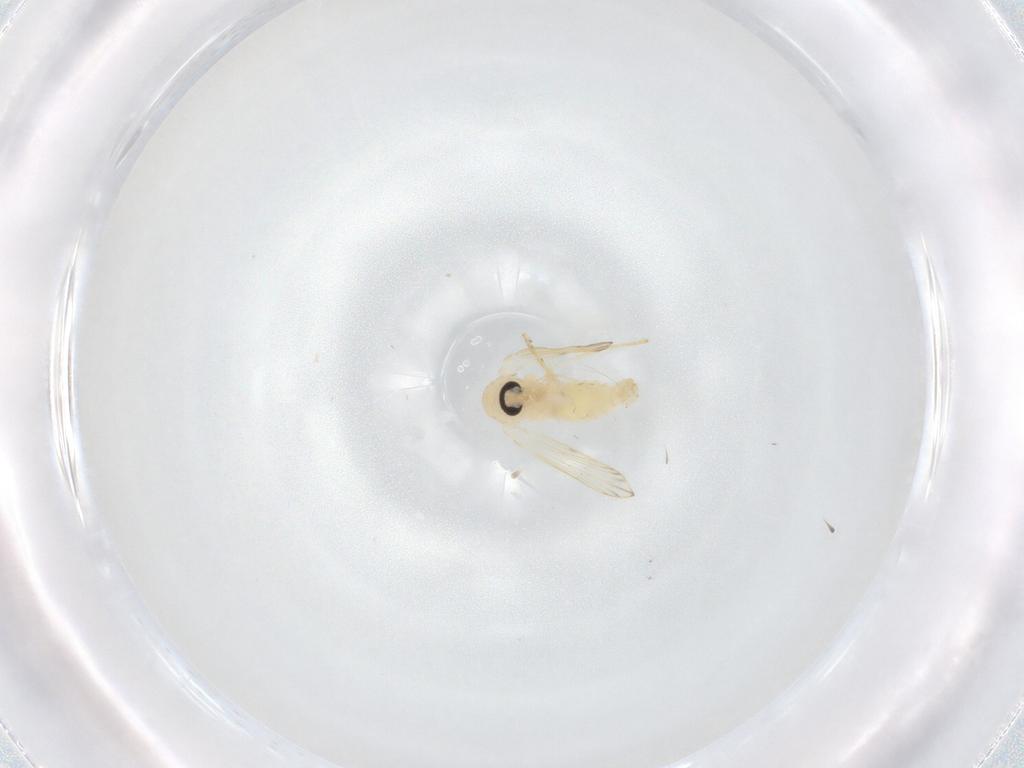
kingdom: Animalia
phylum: Arthropoda
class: Insecta
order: Diptera
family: Psychodidae
